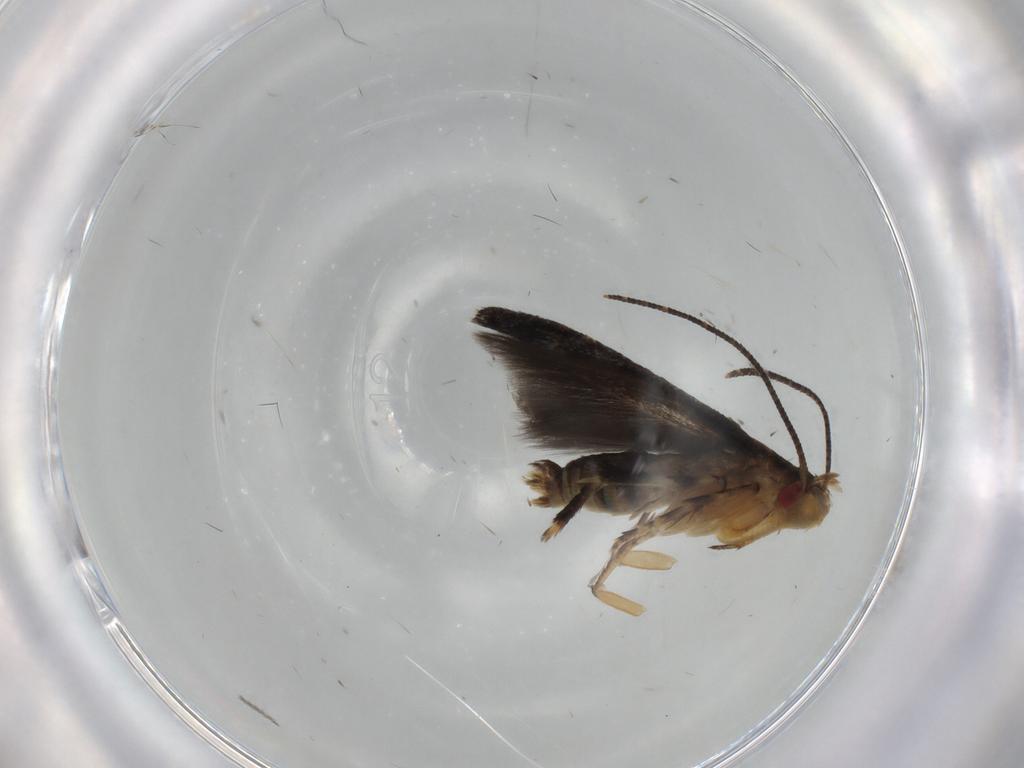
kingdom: Animalia
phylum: Arthropoda
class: Insecta
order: Lepidoptera
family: Momphidae
